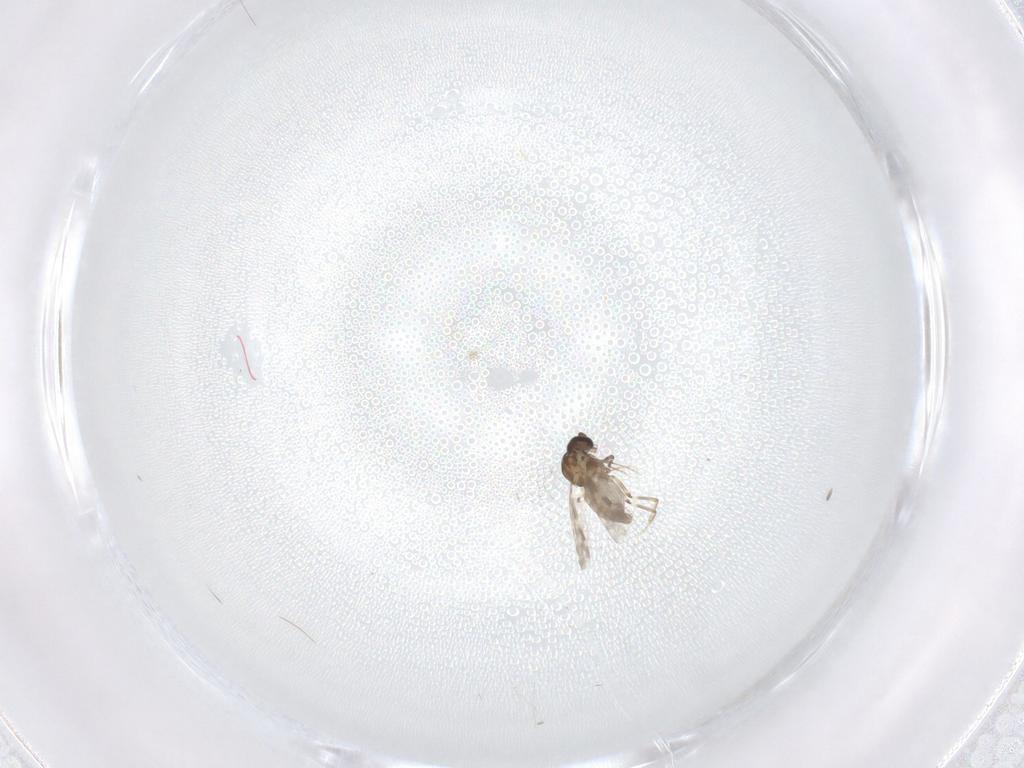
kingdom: Animalia
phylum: Arthropoda
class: Insecta
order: Diptera
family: Ceratopogonidae
